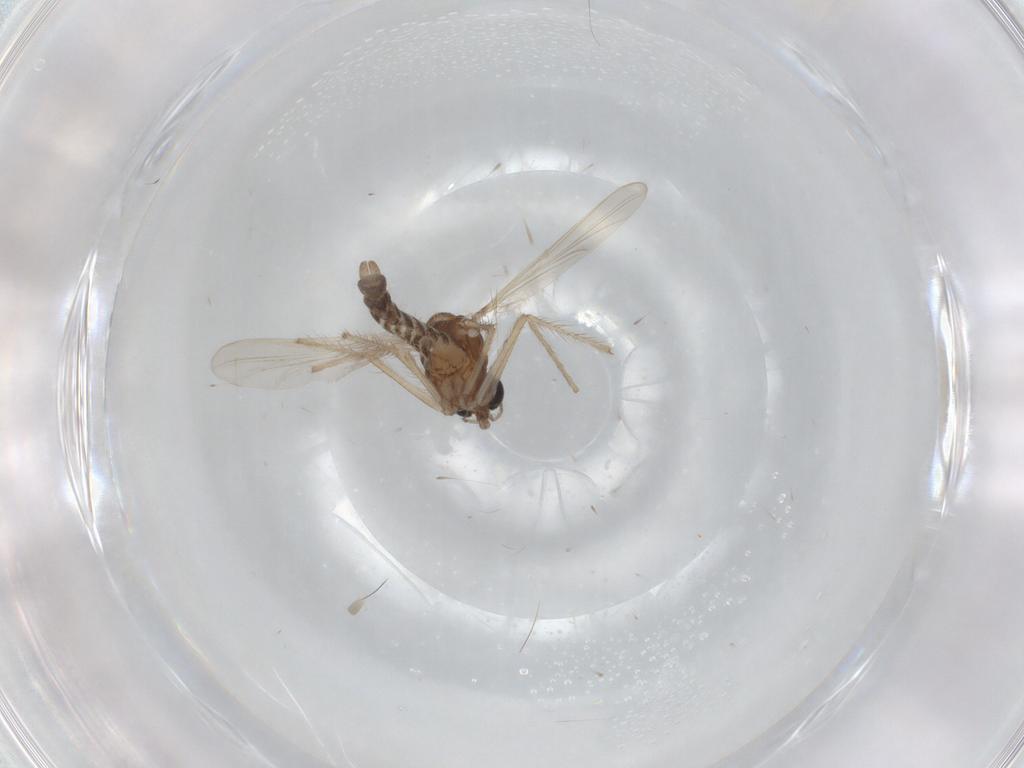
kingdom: Animalia
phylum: Arthropoda
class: Insecta
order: Diptera
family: Chironomidae
